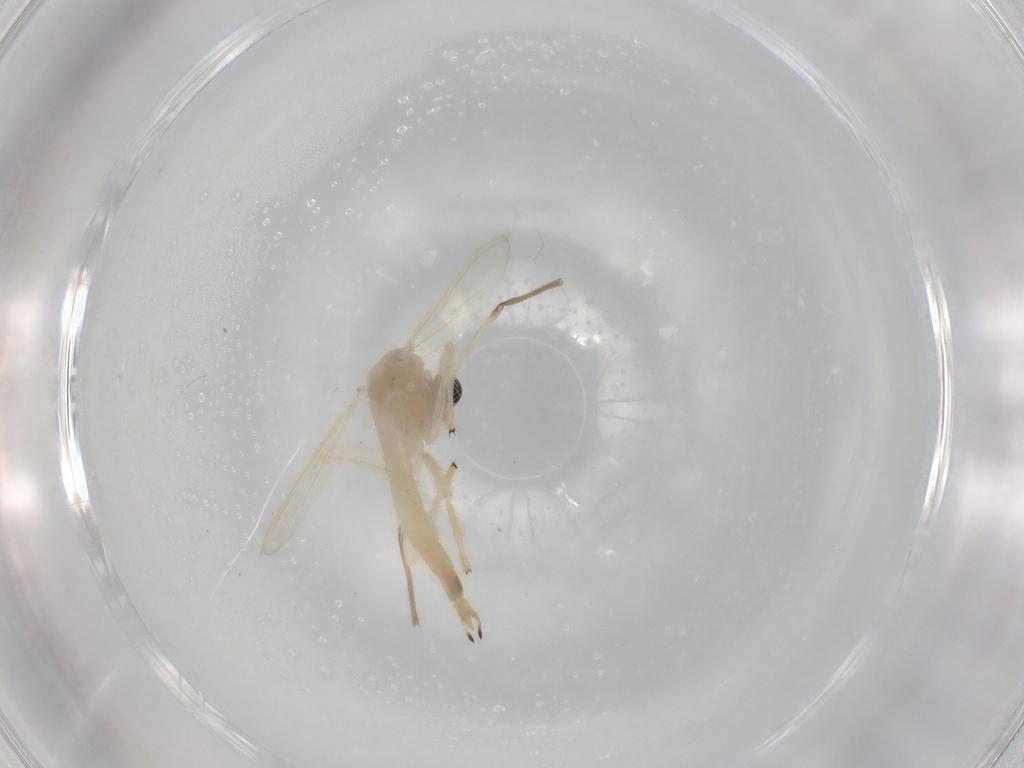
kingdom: Animalia
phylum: Arthropoda
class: Insecta
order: Diptera
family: Chironomidae
